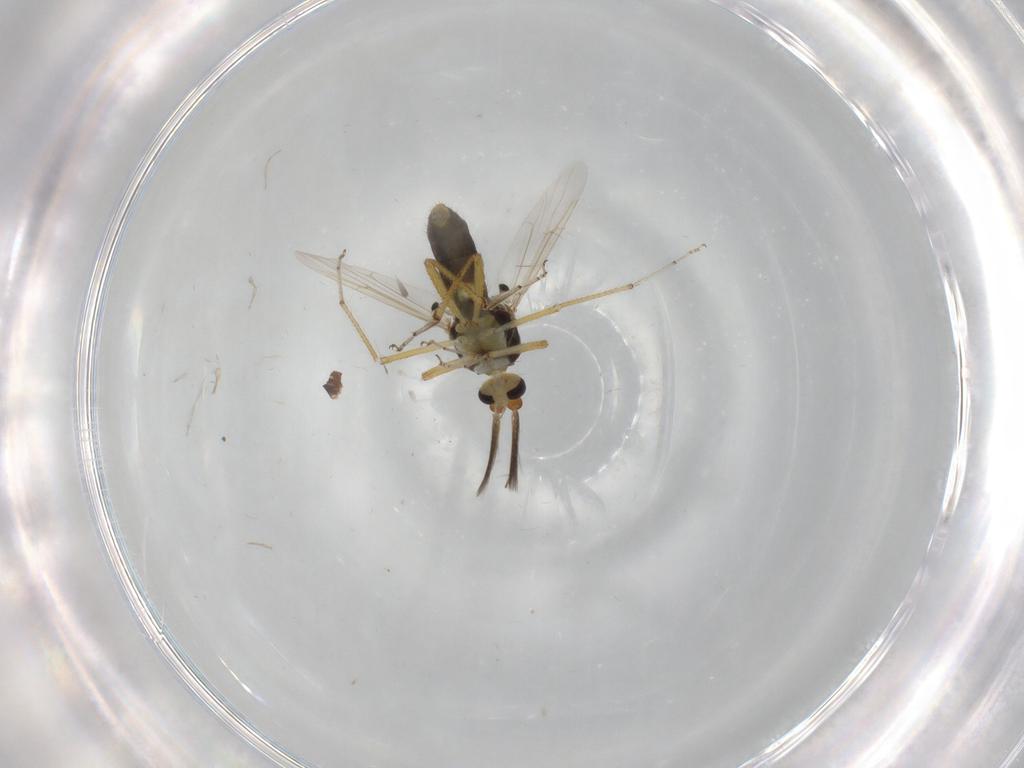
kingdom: Animalia
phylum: Arthropoda
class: Insecta
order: Diptera
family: Ceratopogonidae
